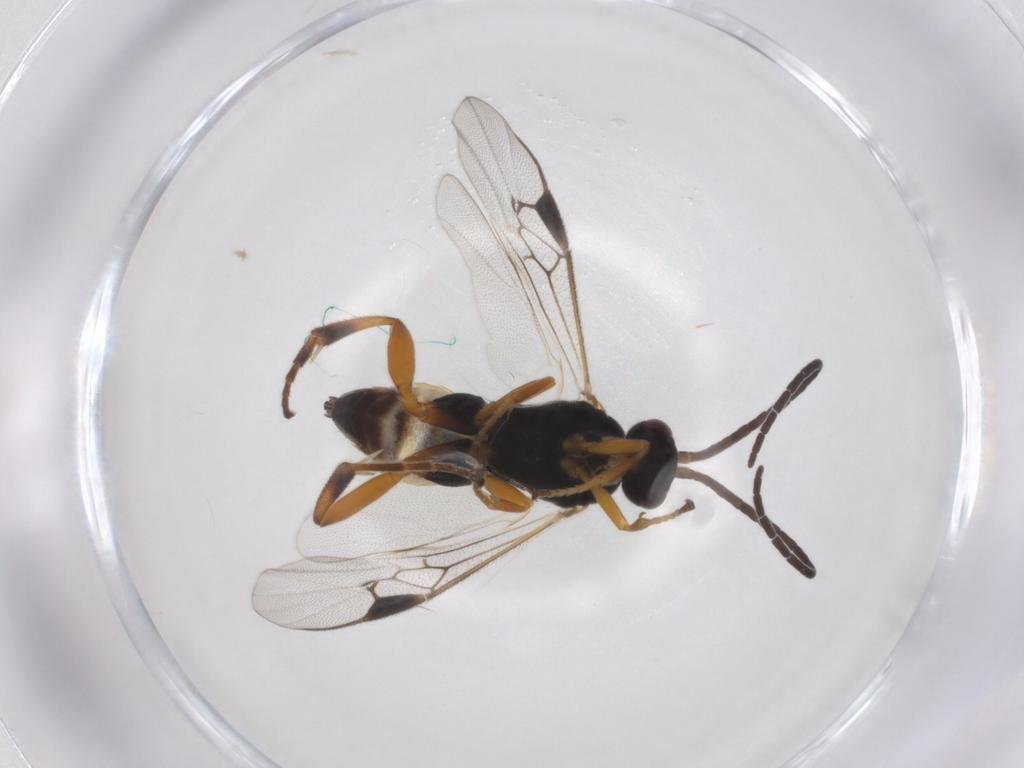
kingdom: Animalia
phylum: Arthropoda
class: Insecta
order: Hymenoptera
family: Braconidae
